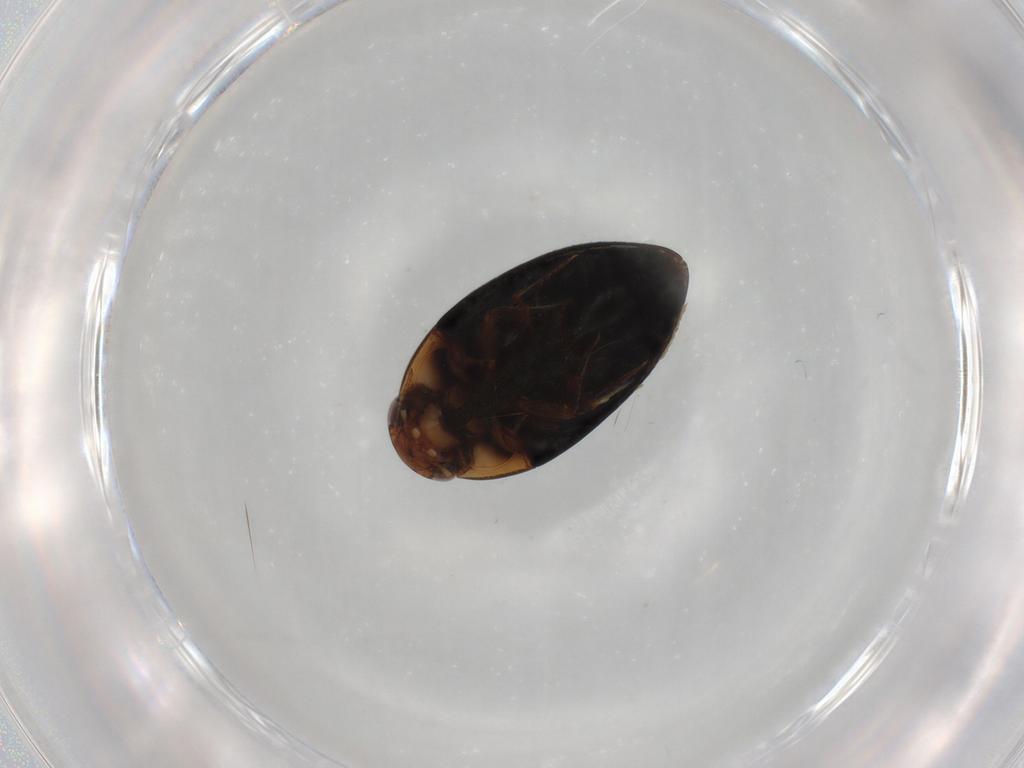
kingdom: Animalia
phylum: Arthropoda
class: Insecta
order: Coleoptera
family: Noteridae
